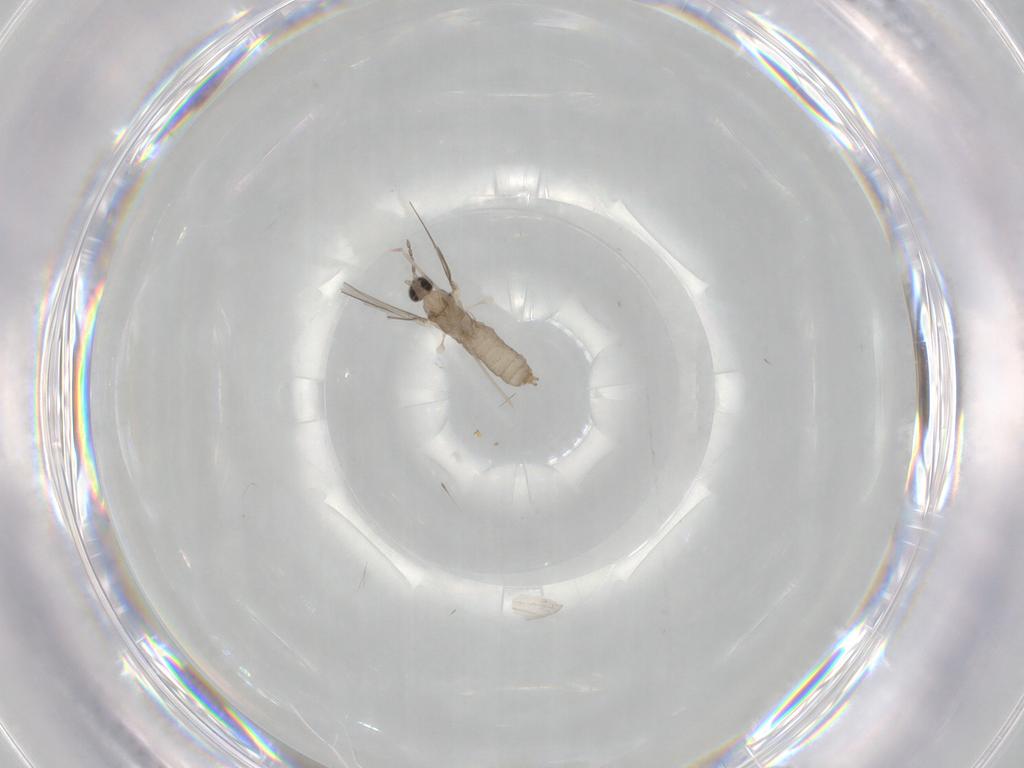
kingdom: Animalia
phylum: Arthropoda
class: Insecta
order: Diptera
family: Cecidomyiidae
